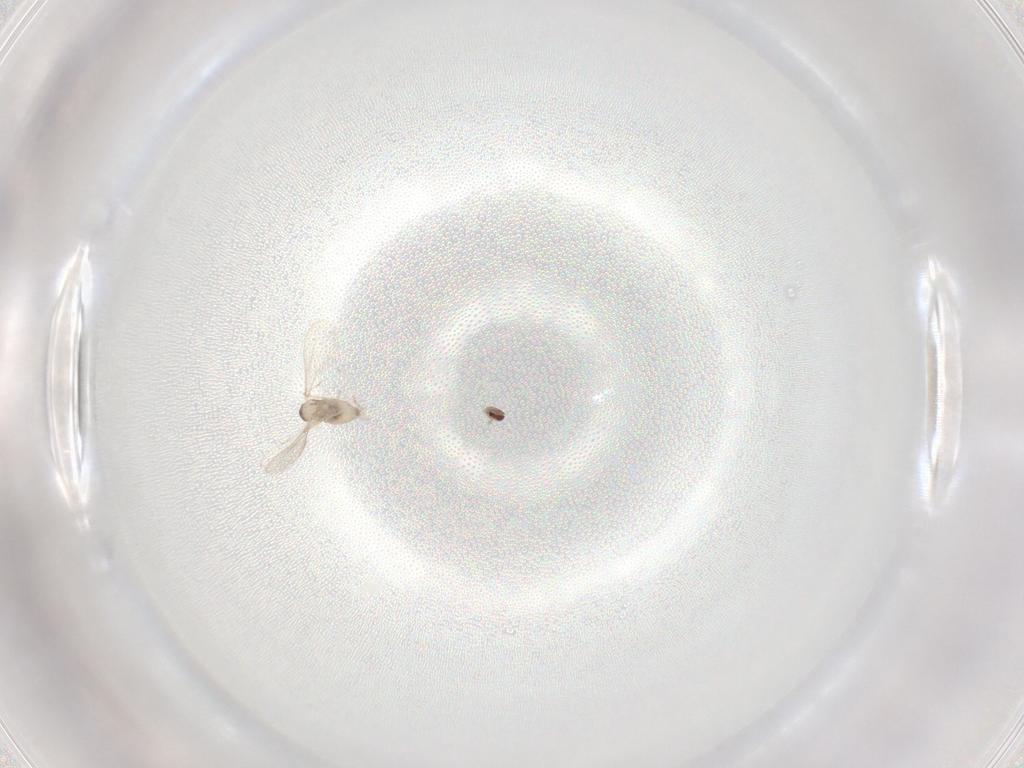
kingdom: Animalia
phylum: Arthropoda
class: Insecta
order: Diptera
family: Cecidomyiidae
